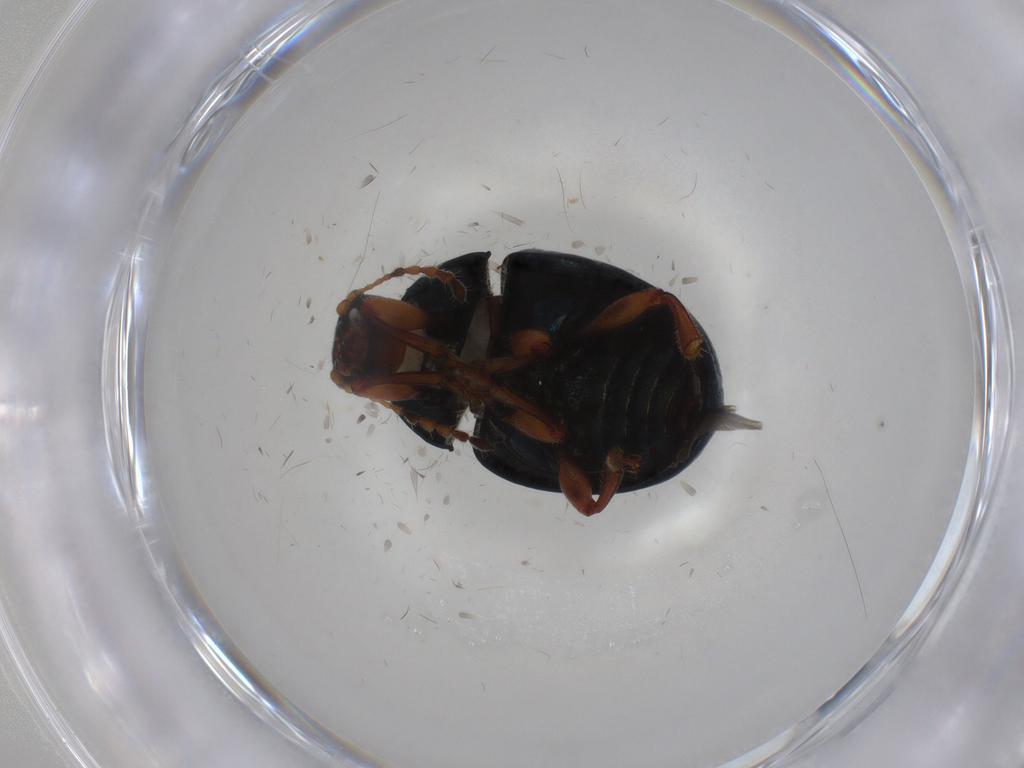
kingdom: Animalia
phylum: Arthropoda
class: Insecta
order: Coleoptera
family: Chrysomelidae
